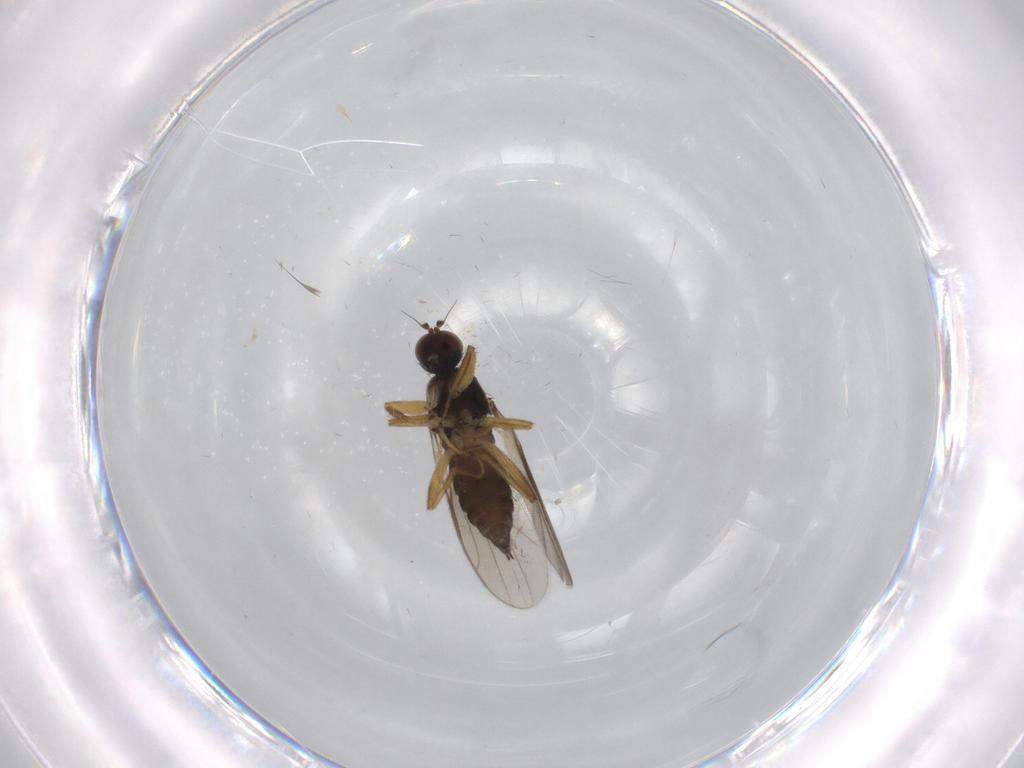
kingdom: Animalia
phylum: Arthropoda
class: Insecta
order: Diptera
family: Hybotidae
